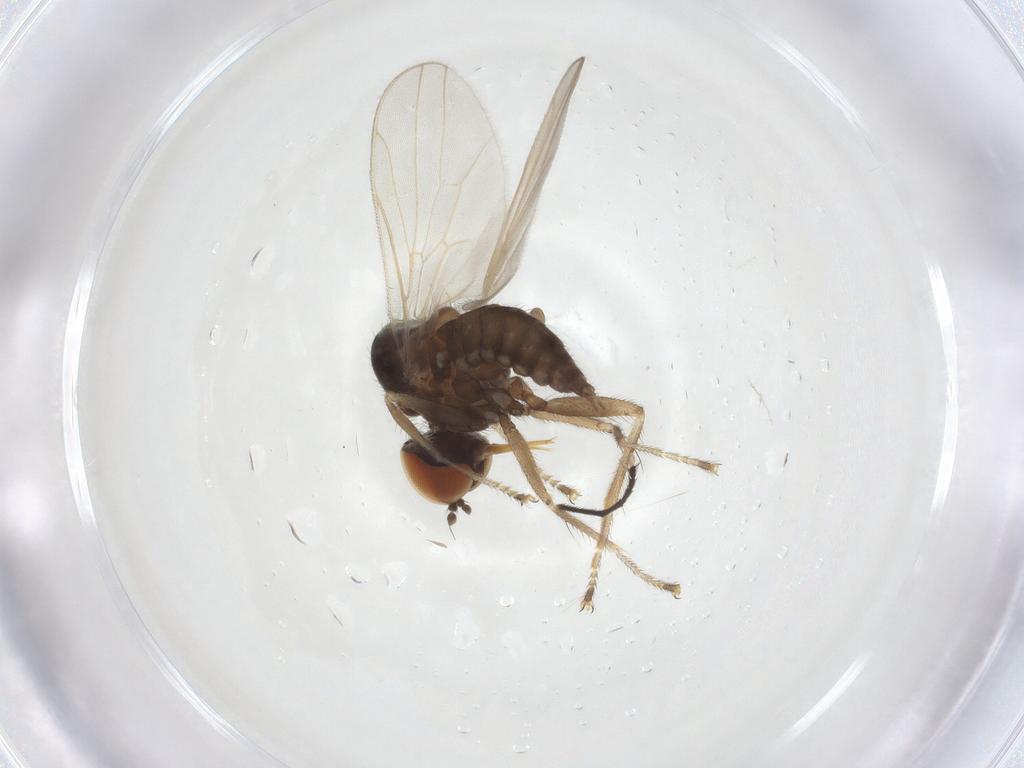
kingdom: Animalia
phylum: Arthropoda
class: Insecta
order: Diptera
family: Hybotidae
